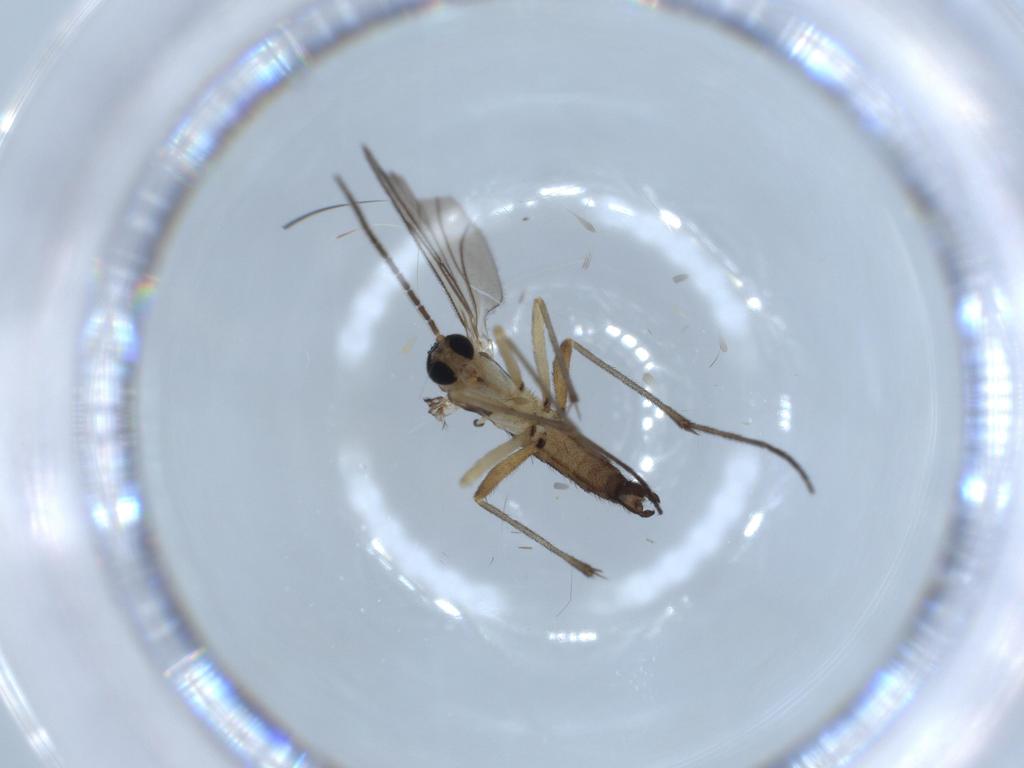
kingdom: Animalia
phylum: Arthropoda
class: Insecta
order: Diptera
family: Sciaridae
